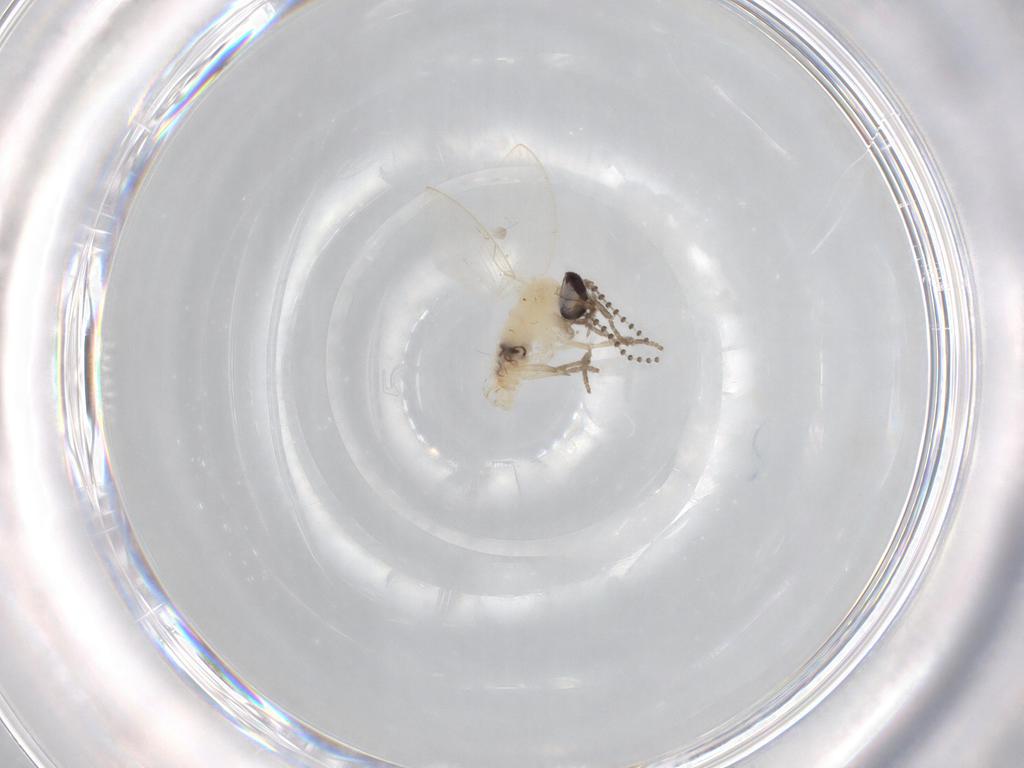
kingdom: Animalia
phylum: Arthropoda
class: Insecta
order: Diptera
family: Psychodidae
